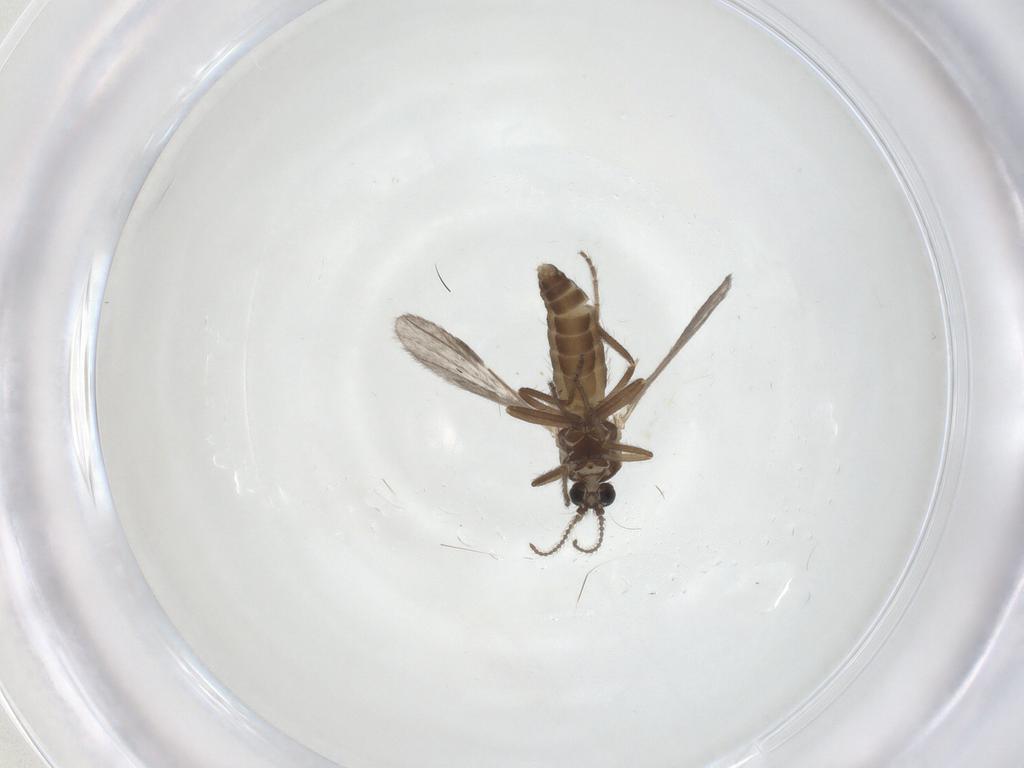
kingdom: Animalia
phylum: Arthropoda
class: Insecta
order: Diptera
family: Ceratopogonidae
